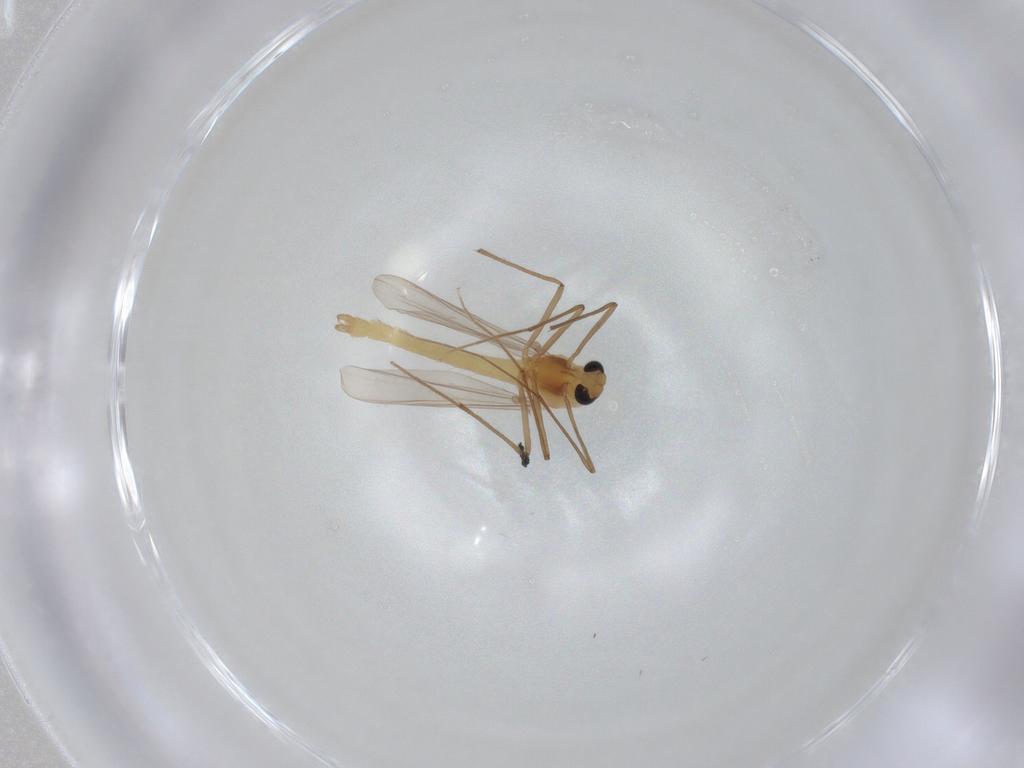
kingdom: Animalia
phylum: Arthropoda
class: Insecta
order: Diptera
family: Chironomidae
